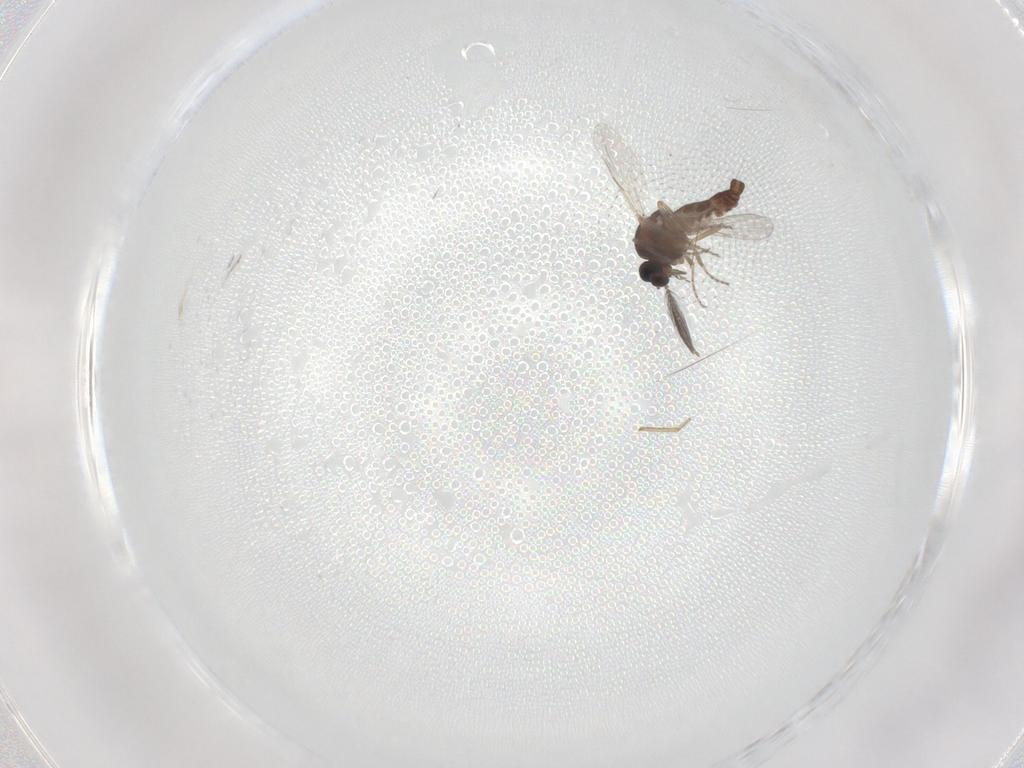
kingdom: Animalia
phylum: Arthropoda
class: Insecta
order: Diptera
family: Ceratopogonidae
